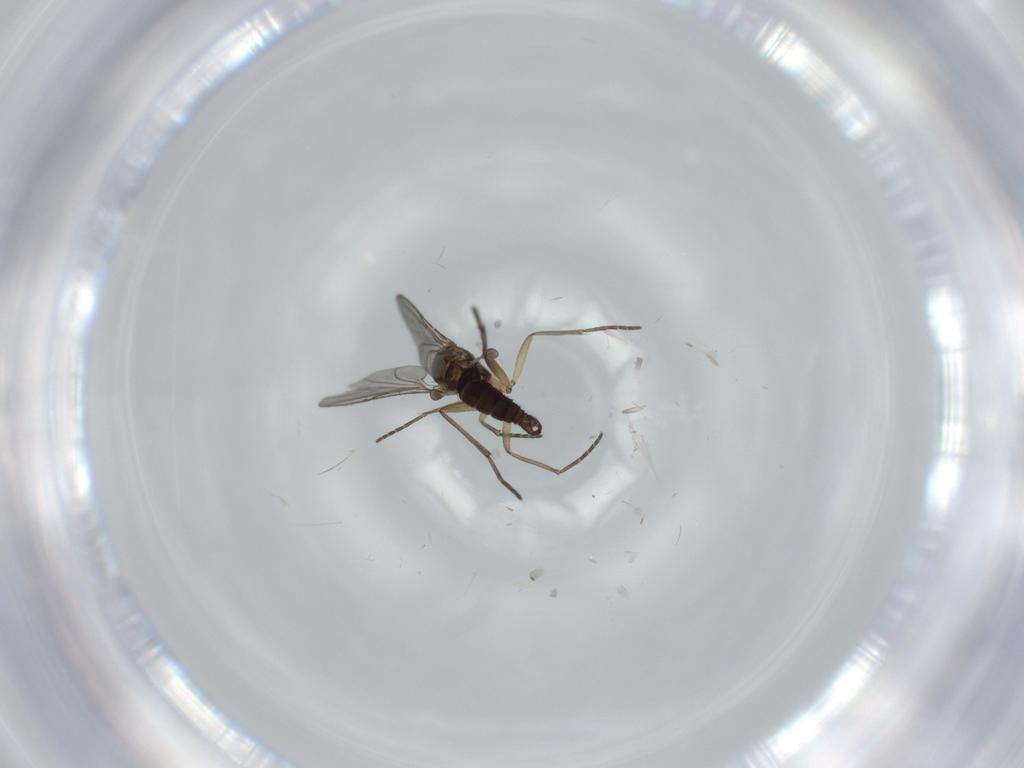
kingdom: Animalia
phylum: Arthropoda
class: Insecta
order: Diptera
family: Sciaridae
